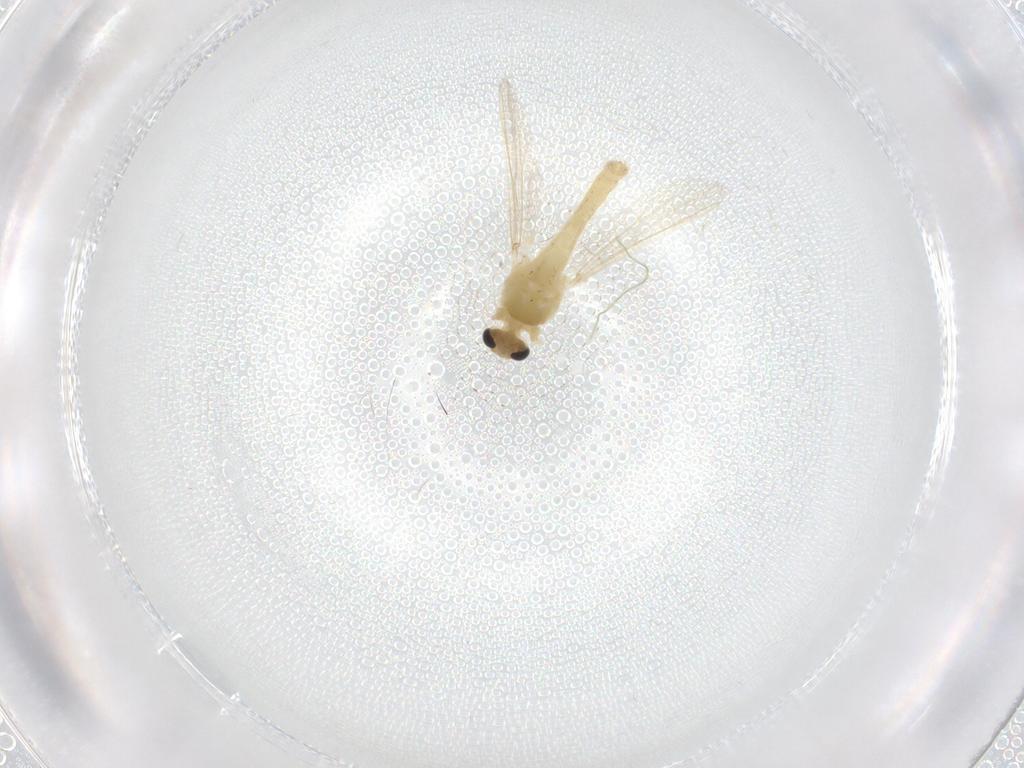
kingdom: Animalia
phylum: Arthropoda
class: Insecta
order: Diptera
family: Chironomidae
